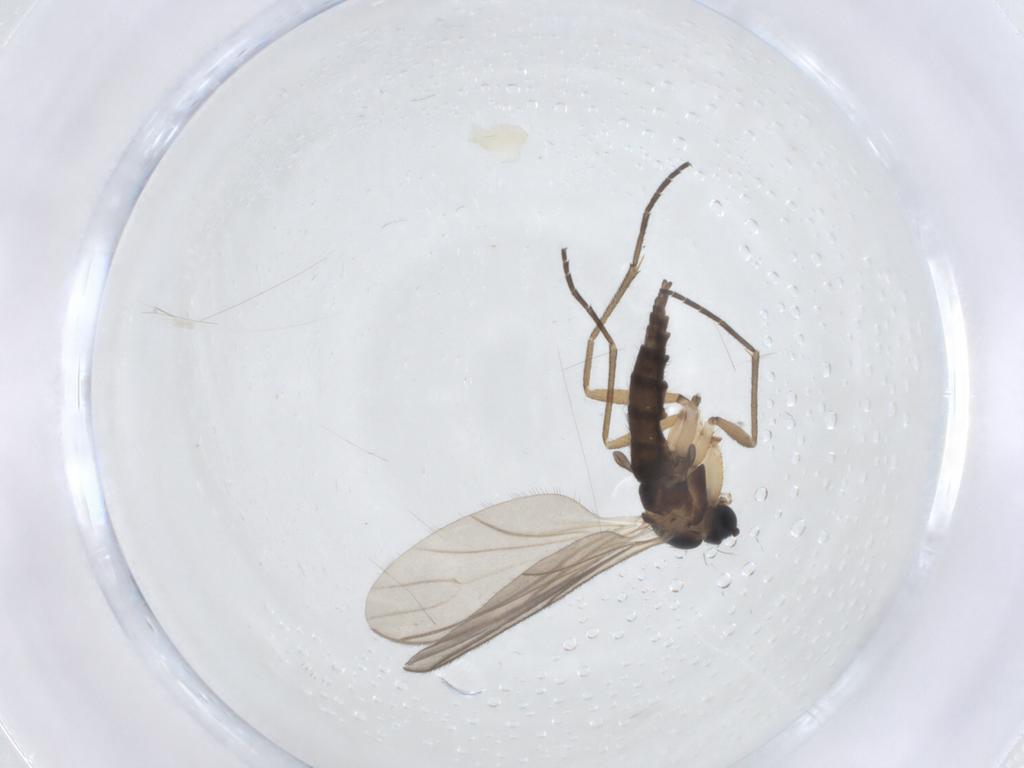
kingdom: Animalia
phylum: Arthropoda
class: Insecta
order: Diptera
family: Sciaridae
